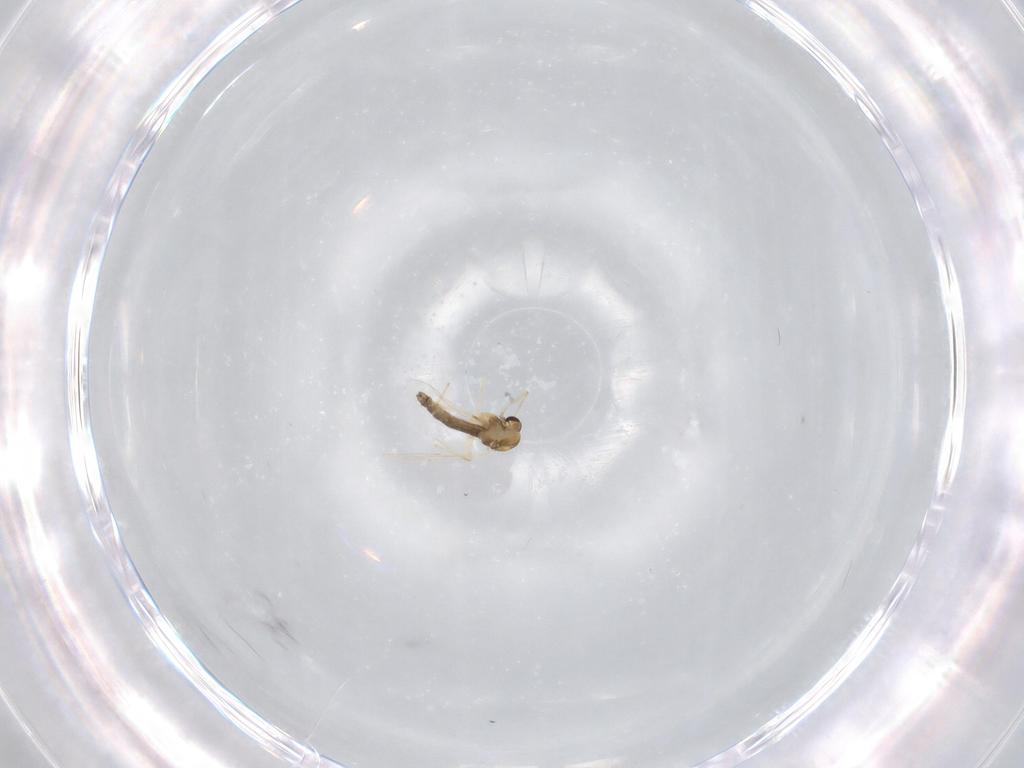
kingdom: Animalia
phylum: Arthropoda
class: Insecta
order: Diptera
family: Chironomidae
